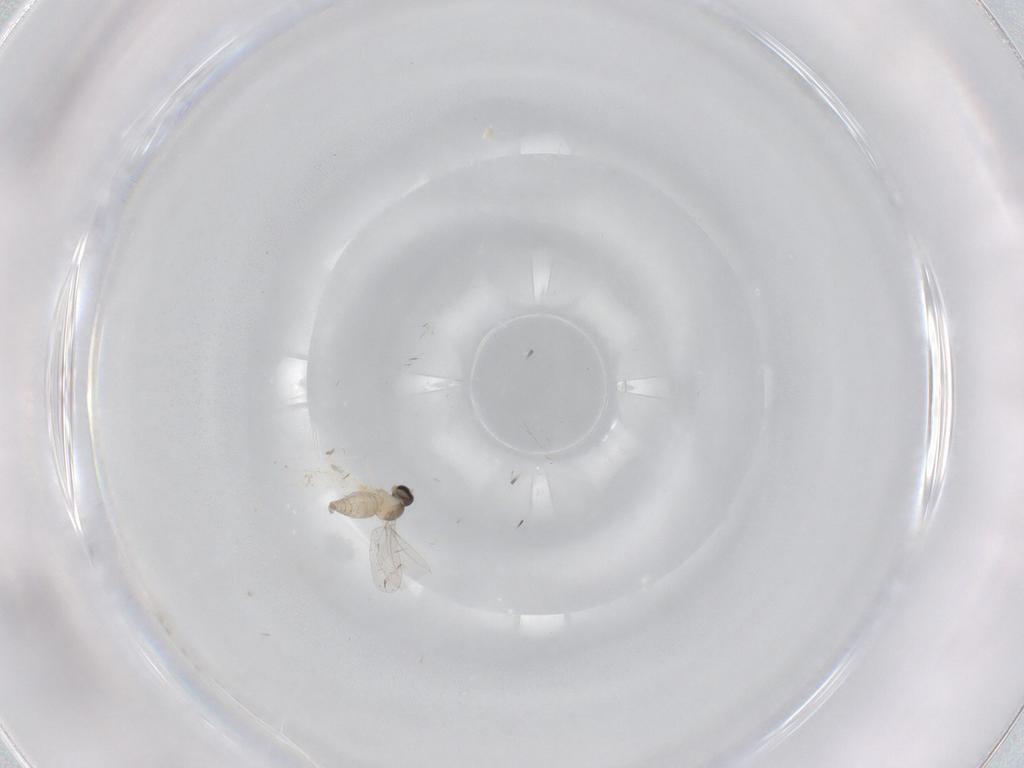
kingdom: Animalia
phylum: Arthropoda
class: Insecta
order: Diptera
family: Cecidomyiidae
